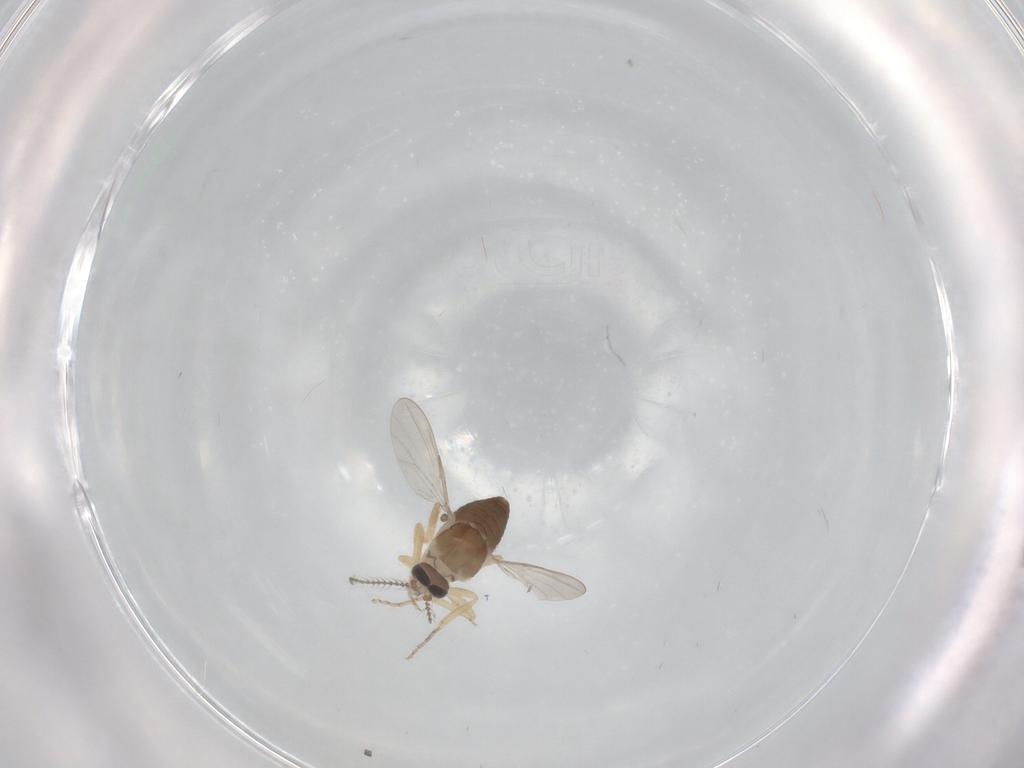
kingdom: Animalia
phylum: Arthropoda
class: Insecta
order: Diptera
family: Ceratopogonidae
